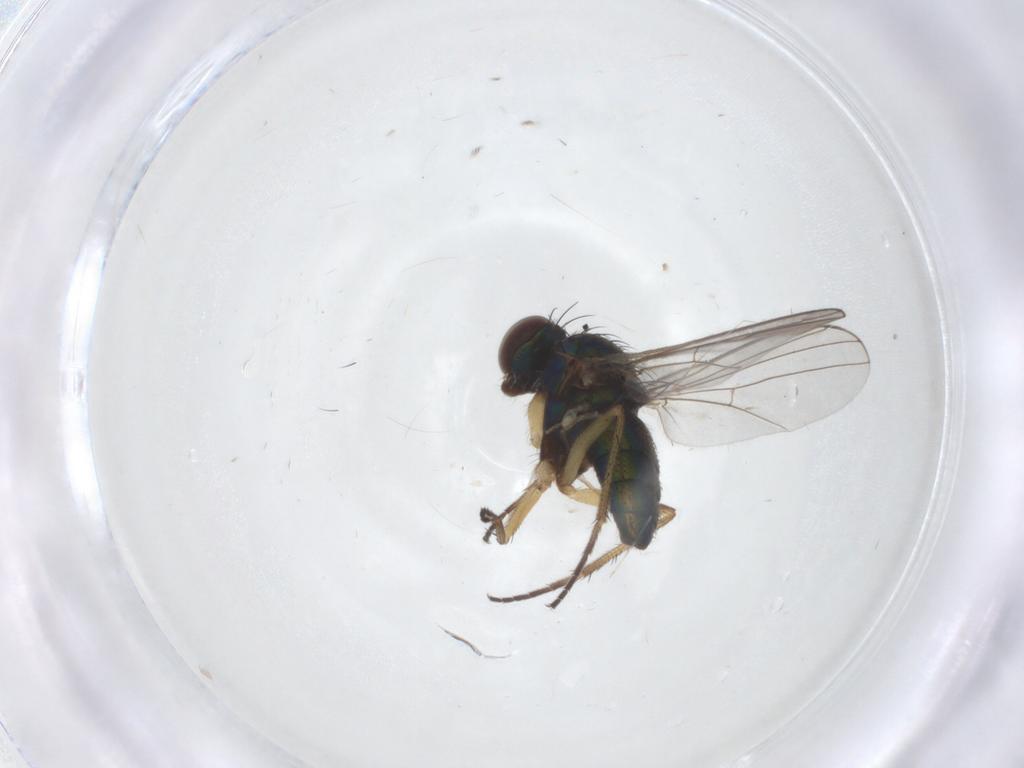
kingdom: Animalia
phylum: Arthropoda
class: Insecta
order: Diptera
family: Dolichopodidae
